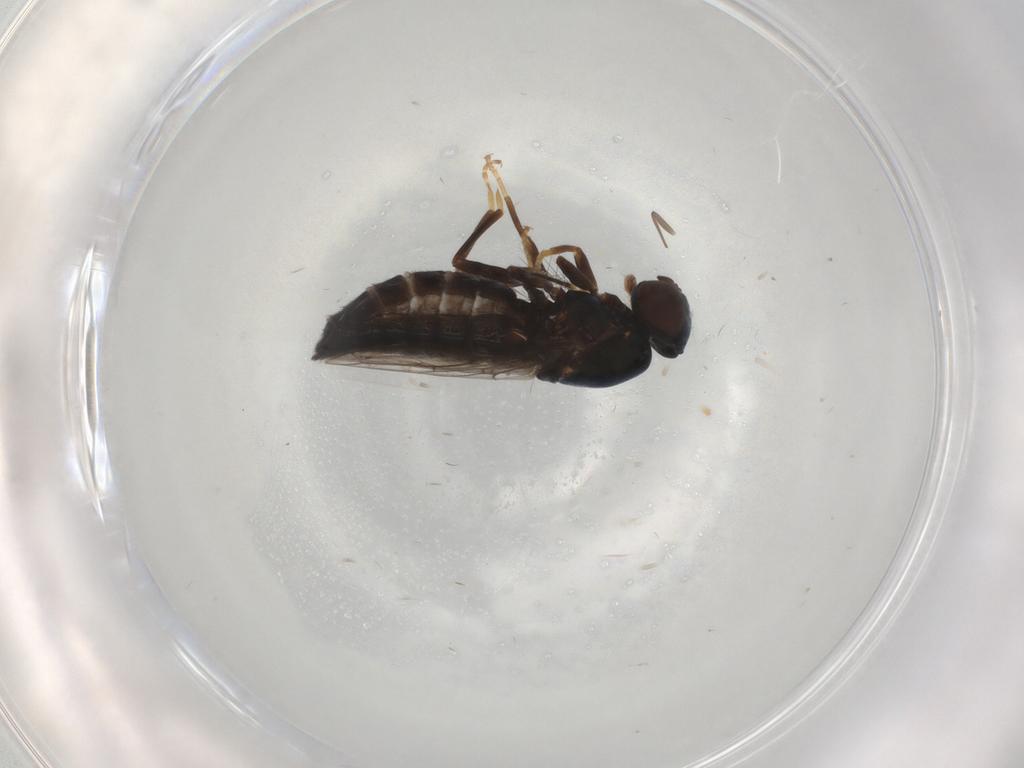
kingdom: Animalia
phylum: Arthropoda
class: Insecta
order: Diptera
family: Scenopinidae
